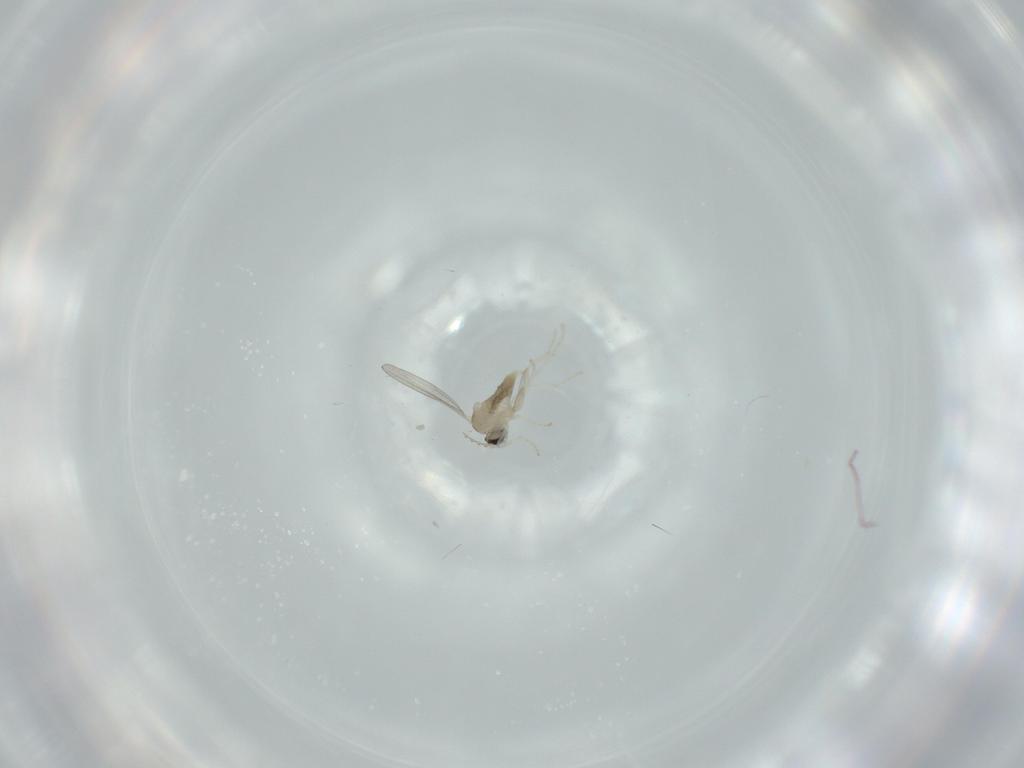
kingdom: Animalia
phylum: Arthropoda
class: Insecta
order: Diptera
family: Cecidomyiidae
